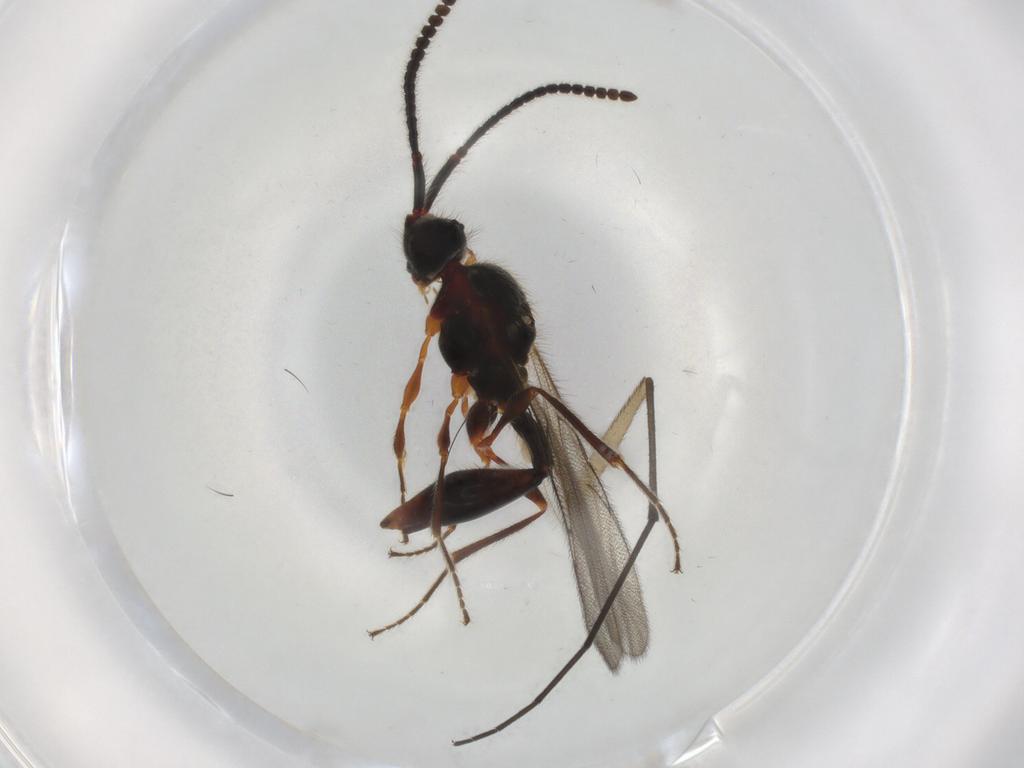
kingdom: Animalia
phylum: Arthropoda
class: Insecta
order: Hymenoptera
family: Diapriidae
